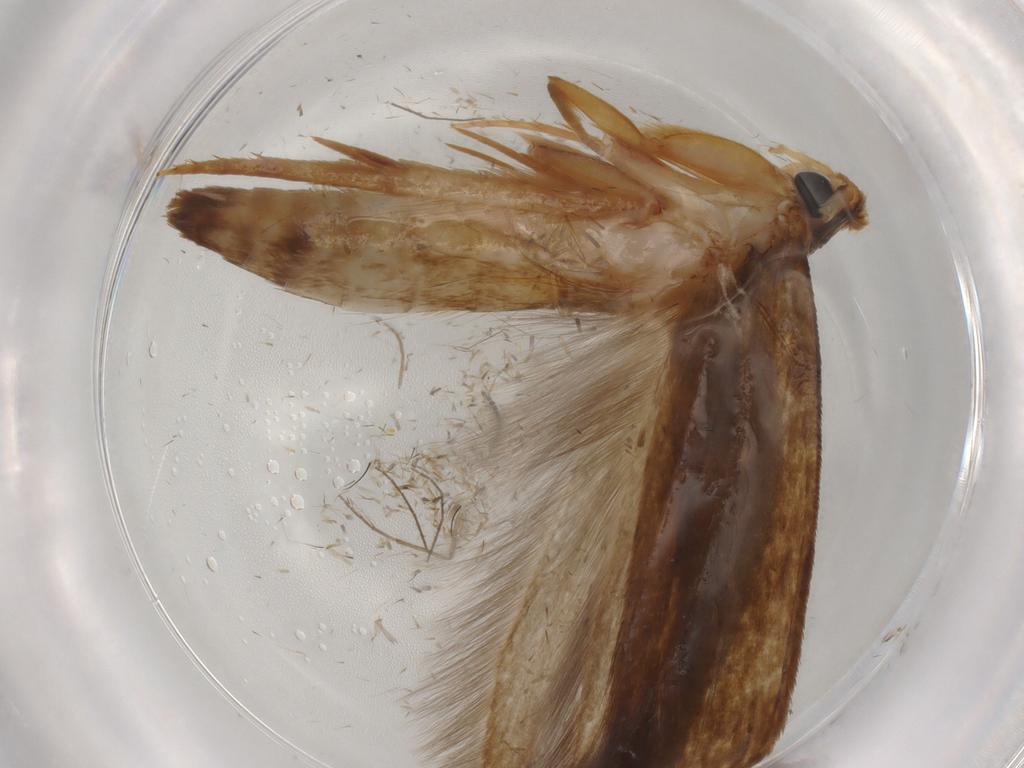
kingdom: Animalia
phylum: Arthropoda
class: Insecta
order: Lepidoptera
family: Tineidae
